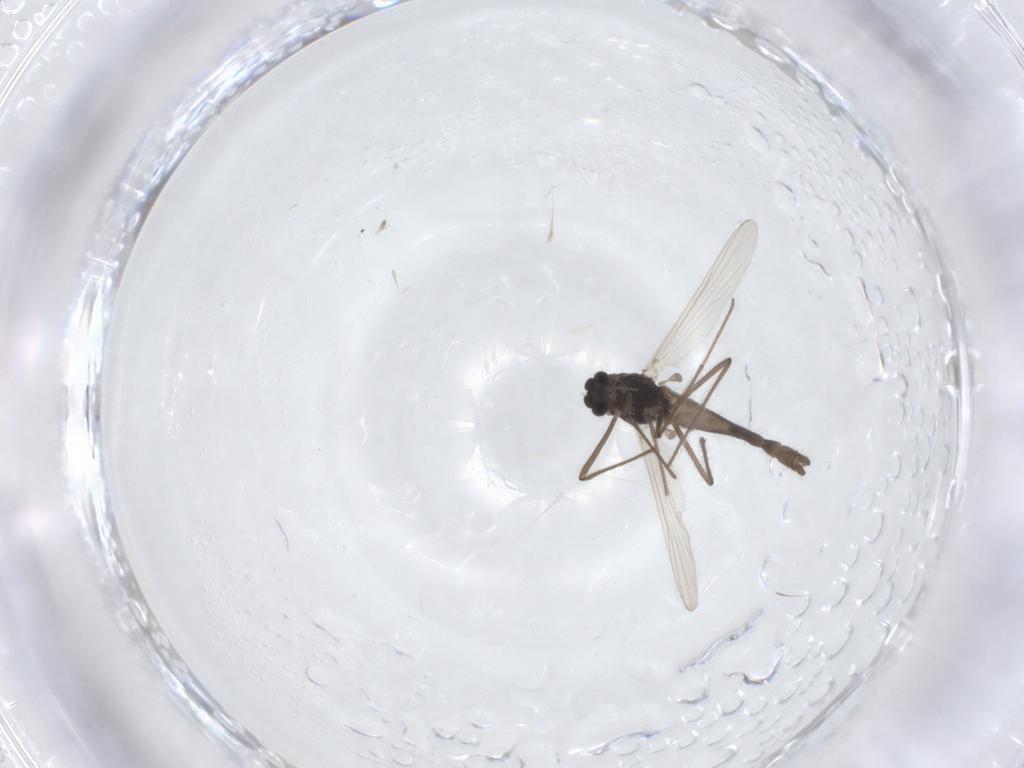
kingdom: Animalia
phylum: Arthropoda
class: Insecta
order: Diptera
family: Chironomidae
